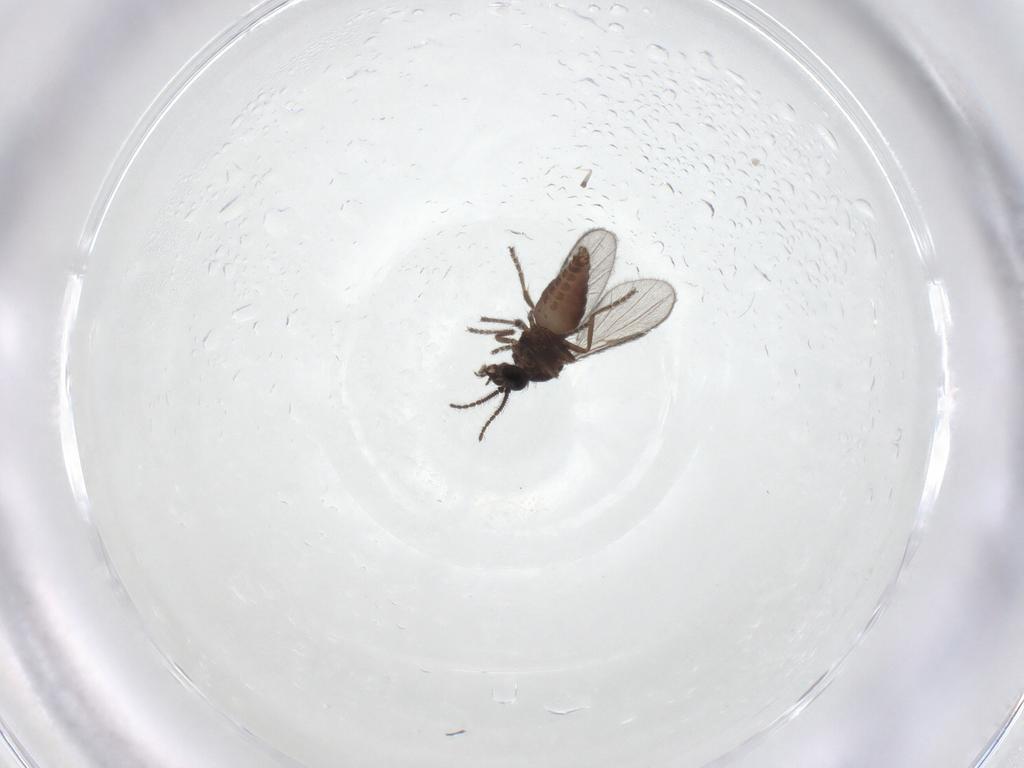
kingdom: Animalia
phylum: Arthropoda
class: Insecta
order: Diptera
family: Ceratopogonidae
